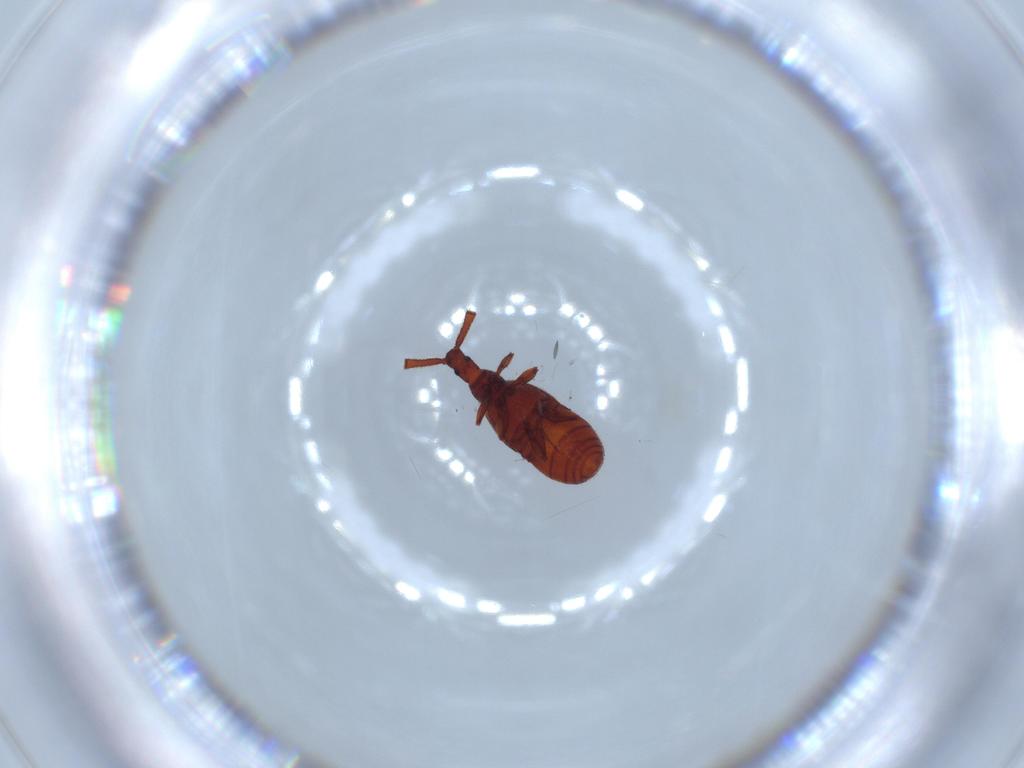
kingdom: Animalia
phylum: Arthropoda
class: Insecta
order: Coleoptera
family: Staphylinidae
